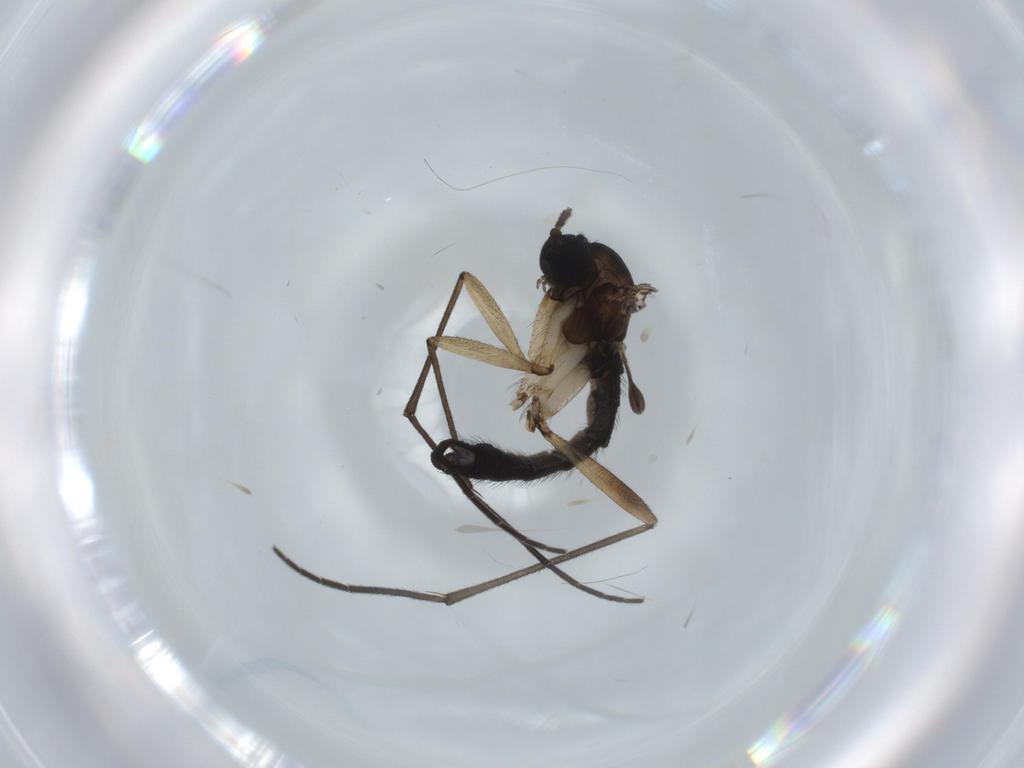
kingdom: Animalia
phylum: Arthropoda
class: Insecta
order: Diptera
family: Sciaridae
